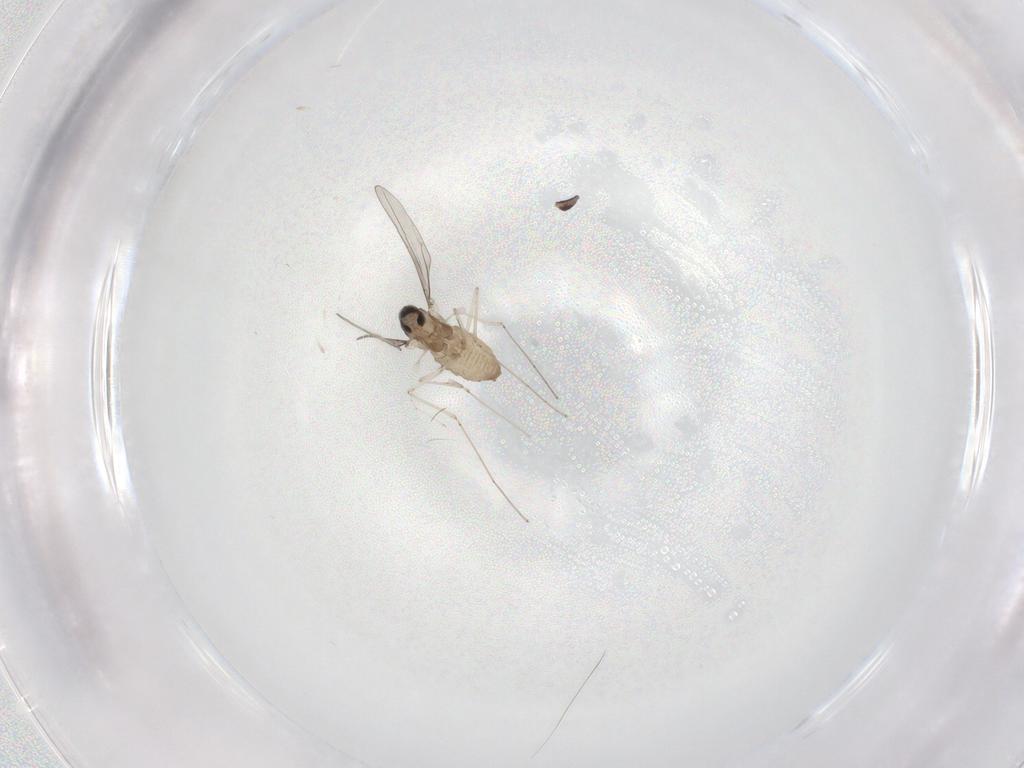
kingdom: Animalia
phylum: Arthropoda
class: Insecta
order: Diptera
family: Cecidomyiidae
